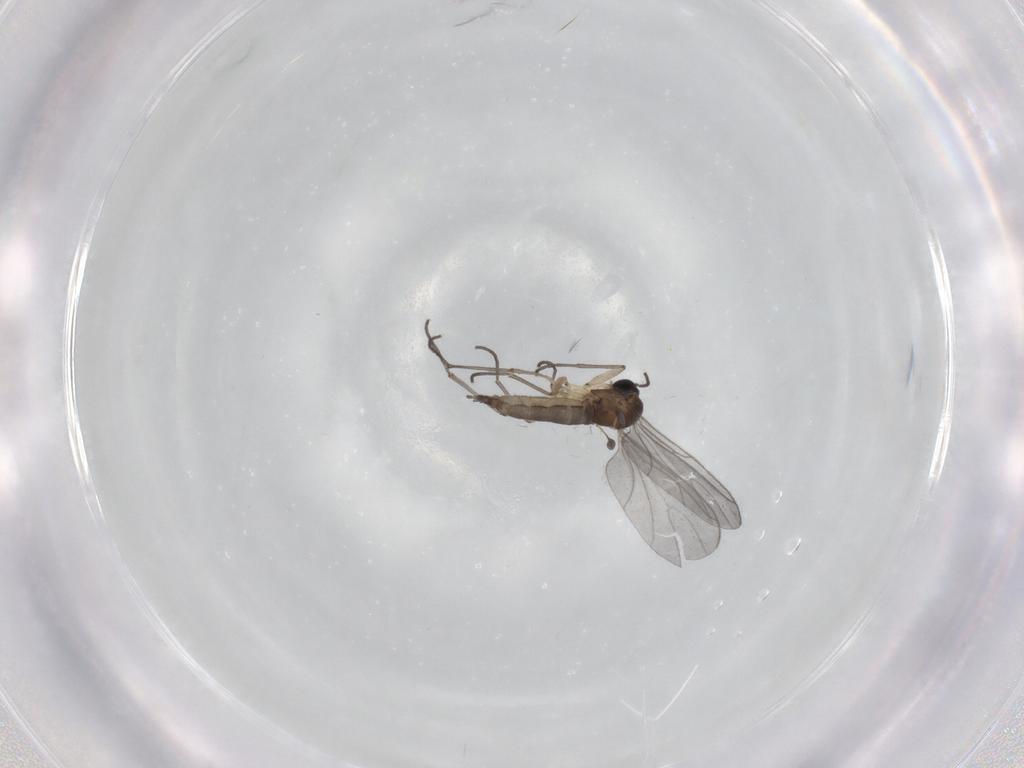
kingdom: Animalia
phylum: Arthropoda
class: Insecta
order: Diptera
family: Sciaridae
